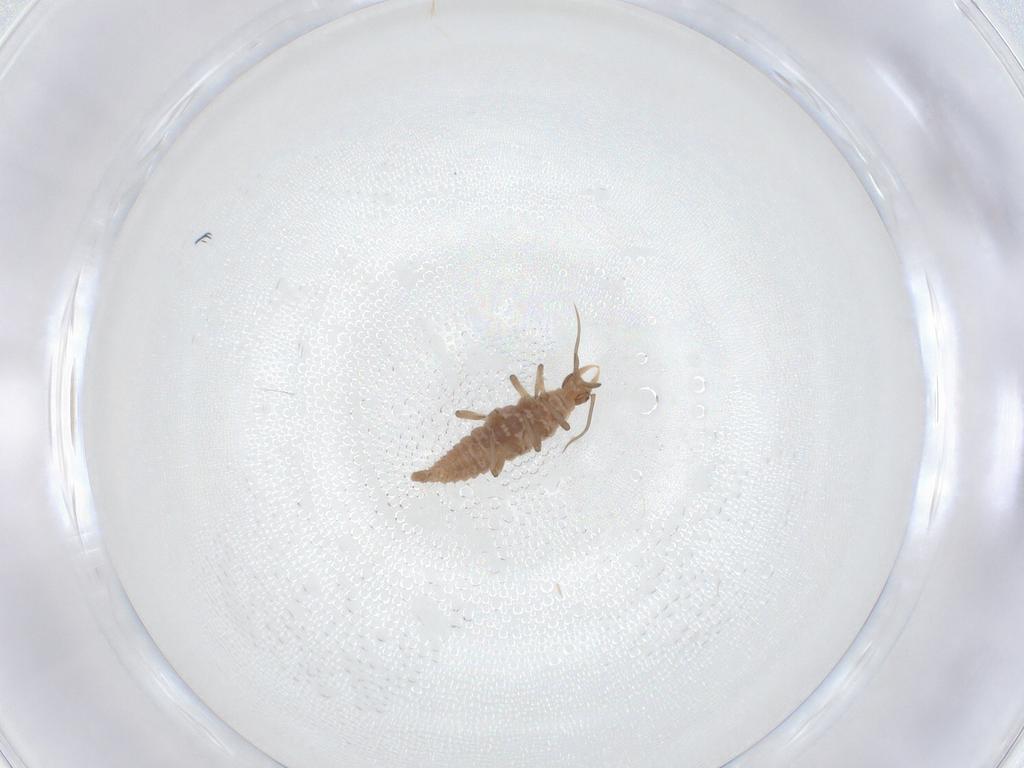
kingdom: Animalia
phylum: Arthropoda
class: Insecta
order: Neuroptera
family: Hemerobiidae
